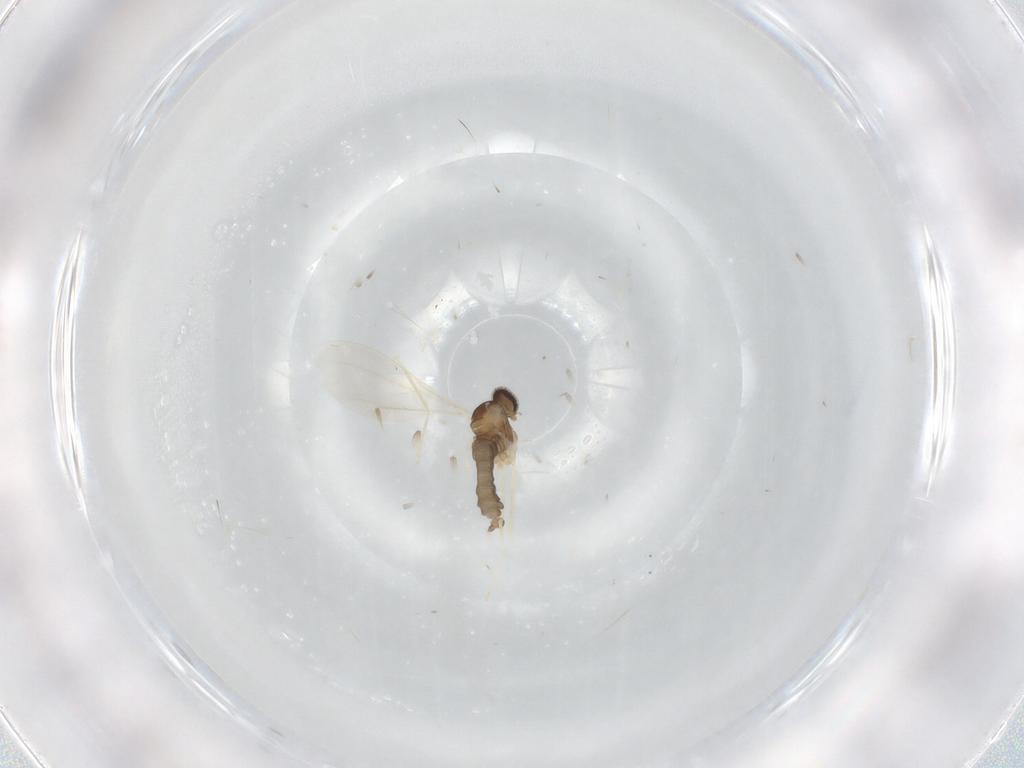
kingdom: Animalia
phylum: Arthropoda
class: Insecta
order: Diptera
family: Cecidomyiidae
